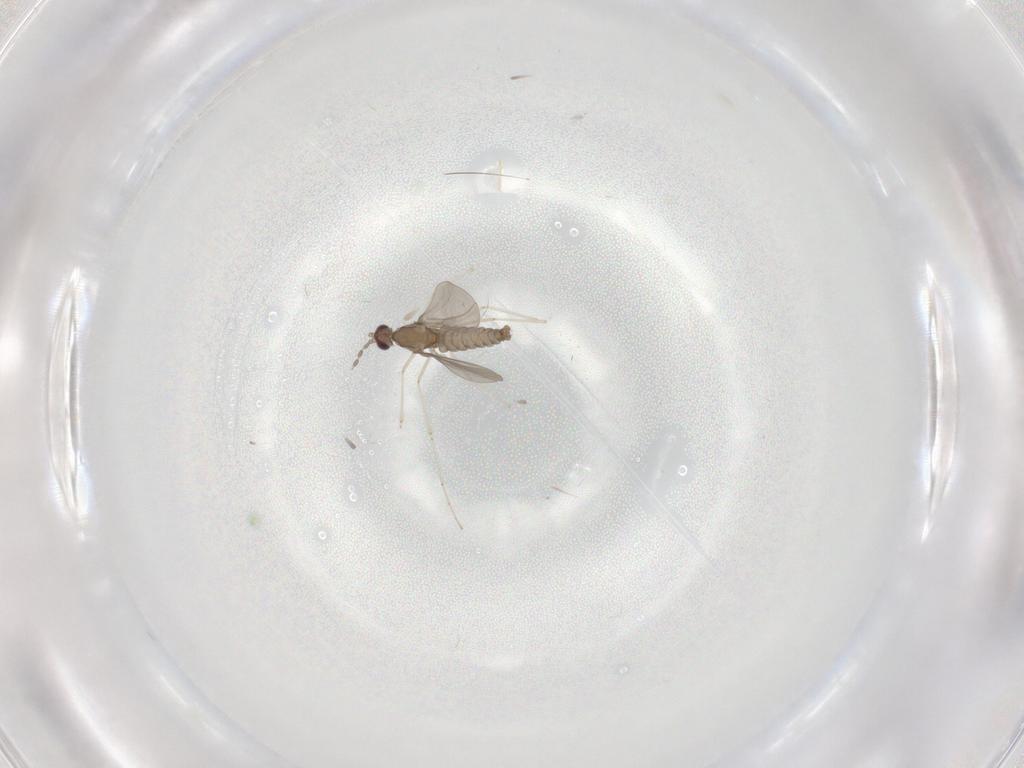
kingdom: Animalia
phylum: Arthropoda
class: Insecta
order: Diptera
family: Cecidomyiidae
